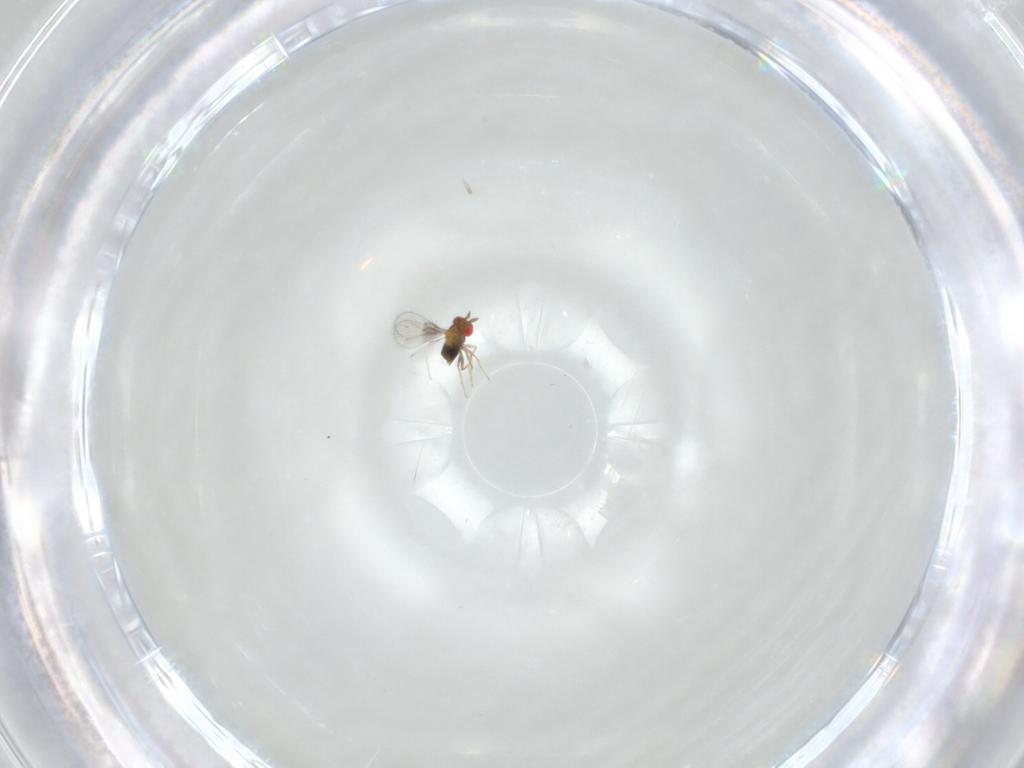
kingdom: Animalia
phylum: Arthropoda
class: Insecta
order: Hymenoptera
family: Trichogrammatidae
